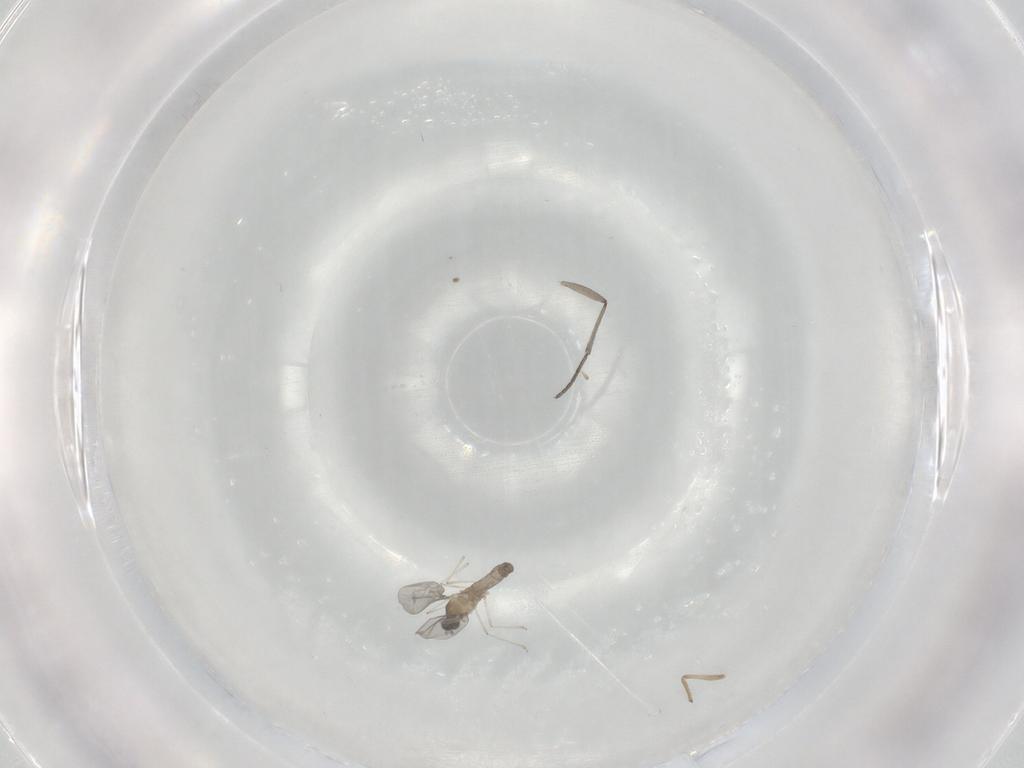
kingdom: Animalia
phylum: Arthropoda
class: Insecta
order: Diptera
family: Cecidomyiidae
